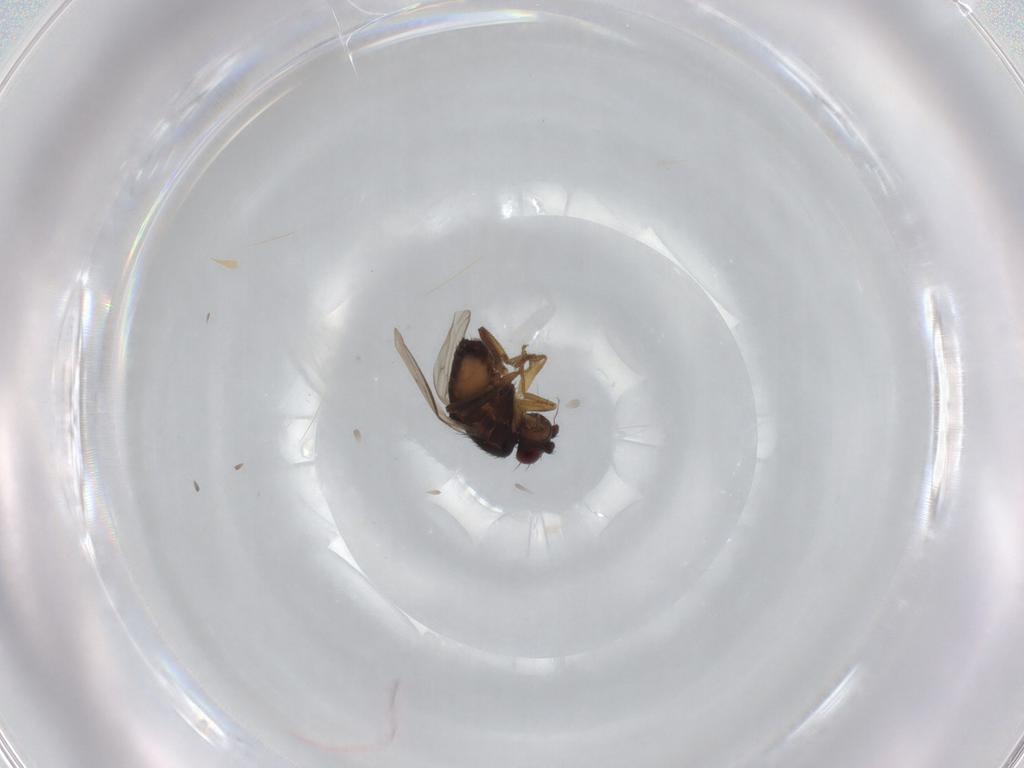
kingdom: Animalia
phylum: Arthropoda
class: Insecta
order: Diptera
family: Sphaeroceridae
